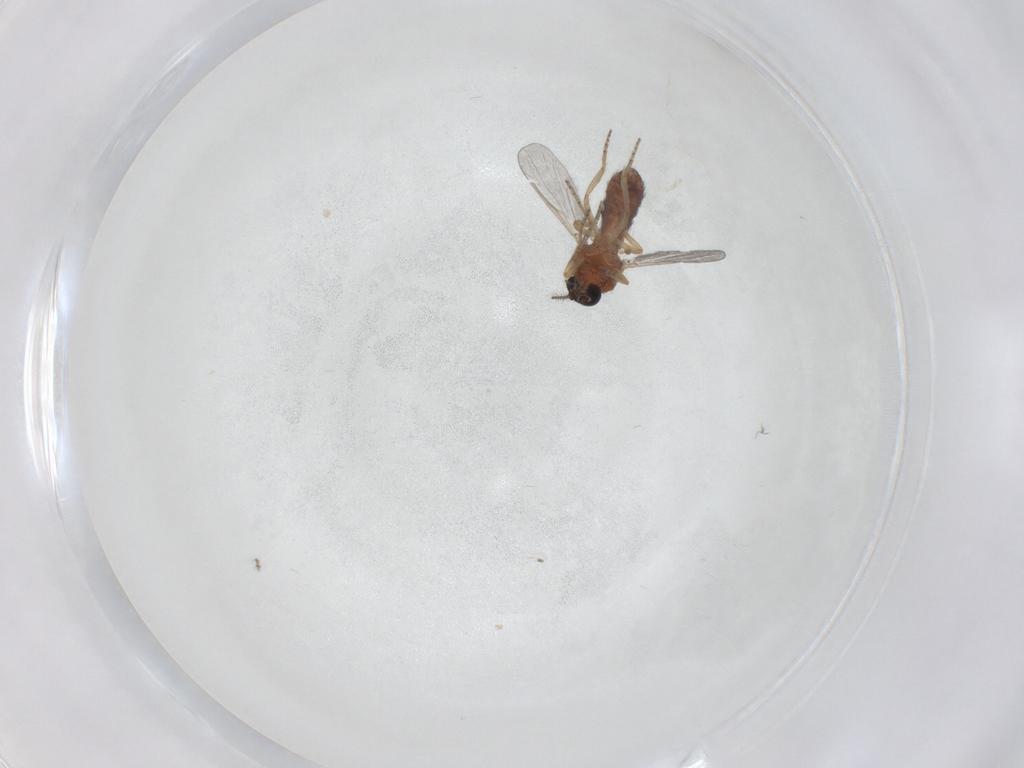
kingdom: Animalia
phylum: Arthropoda
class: Insecta
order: Diptera
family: Ceratopogonidae
